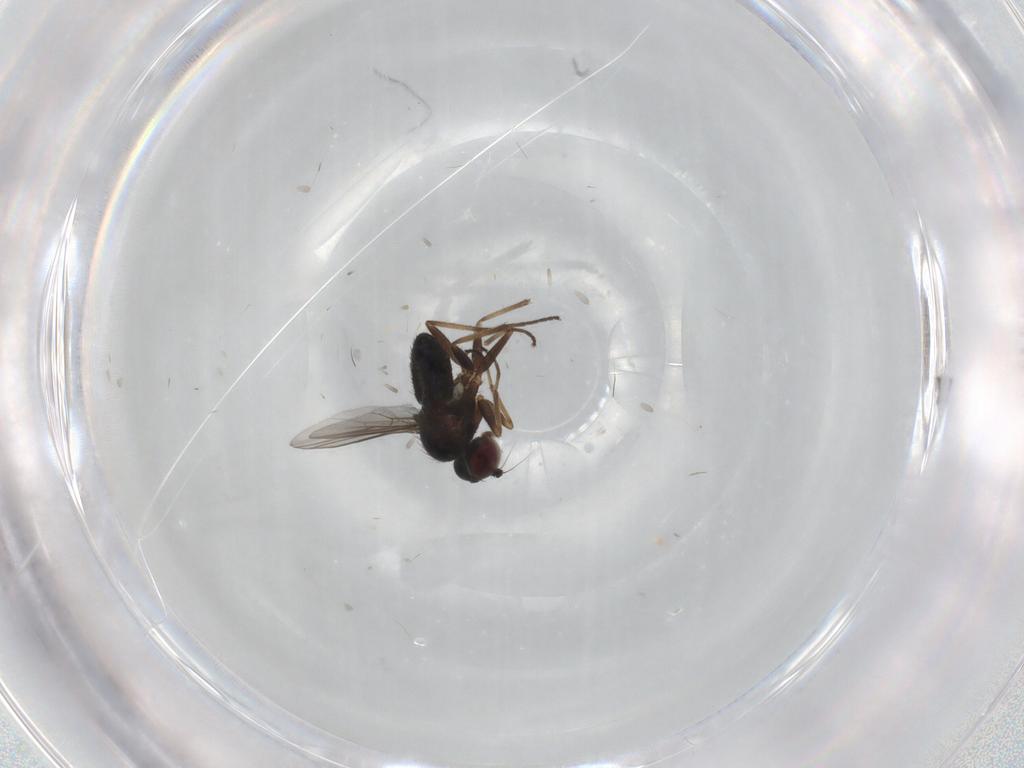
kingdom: Animalia
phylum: Arthropoda
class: Insecta
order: Diptera
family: Dolichopodidae
